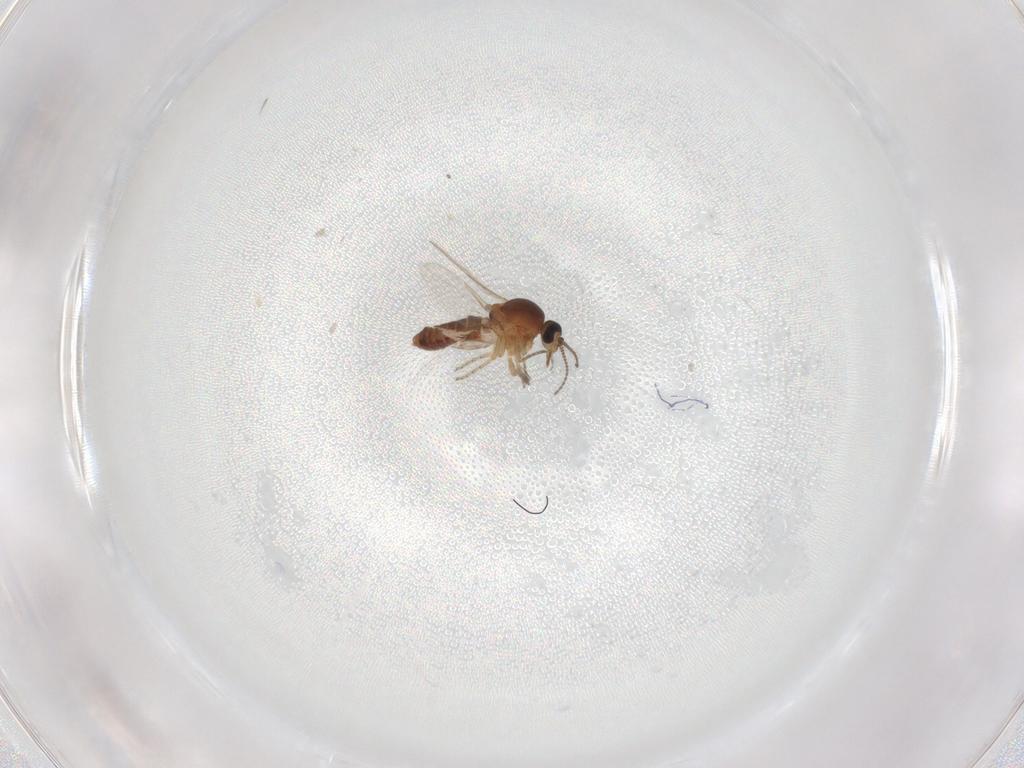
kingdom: Animalia
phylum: Arthropoda
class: Insecta
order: Diptera
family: Ceratopogonidae
